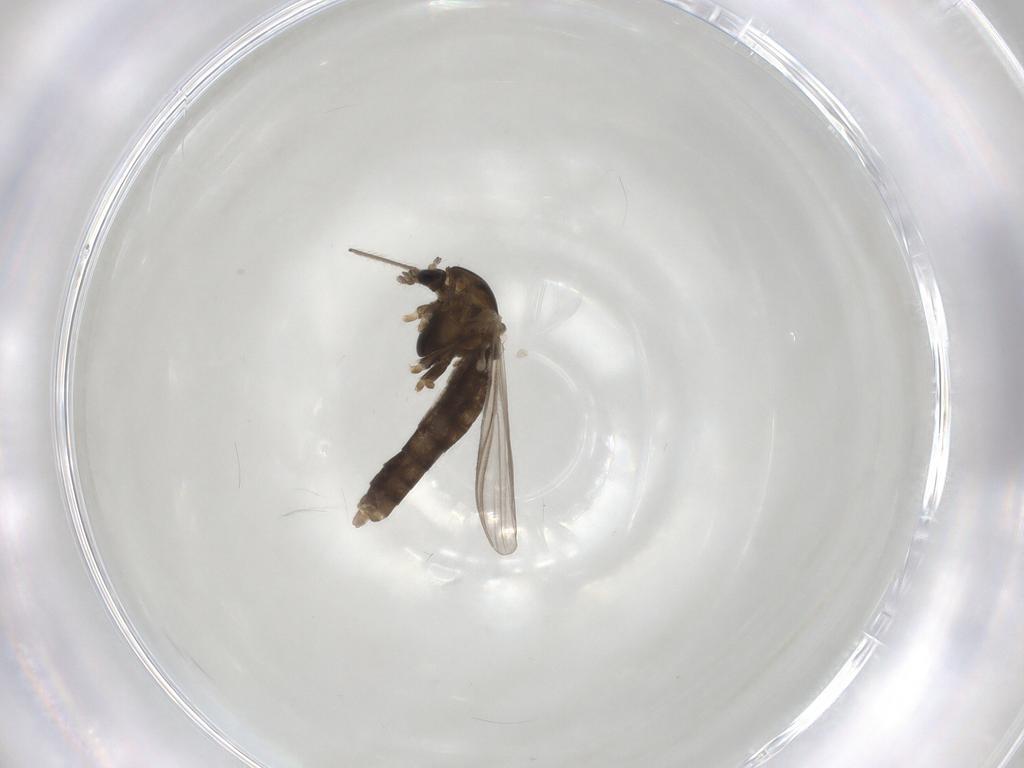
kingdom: Animalia
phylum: Arthropoda
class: Insecta
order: Diptera
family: Chironomidae
